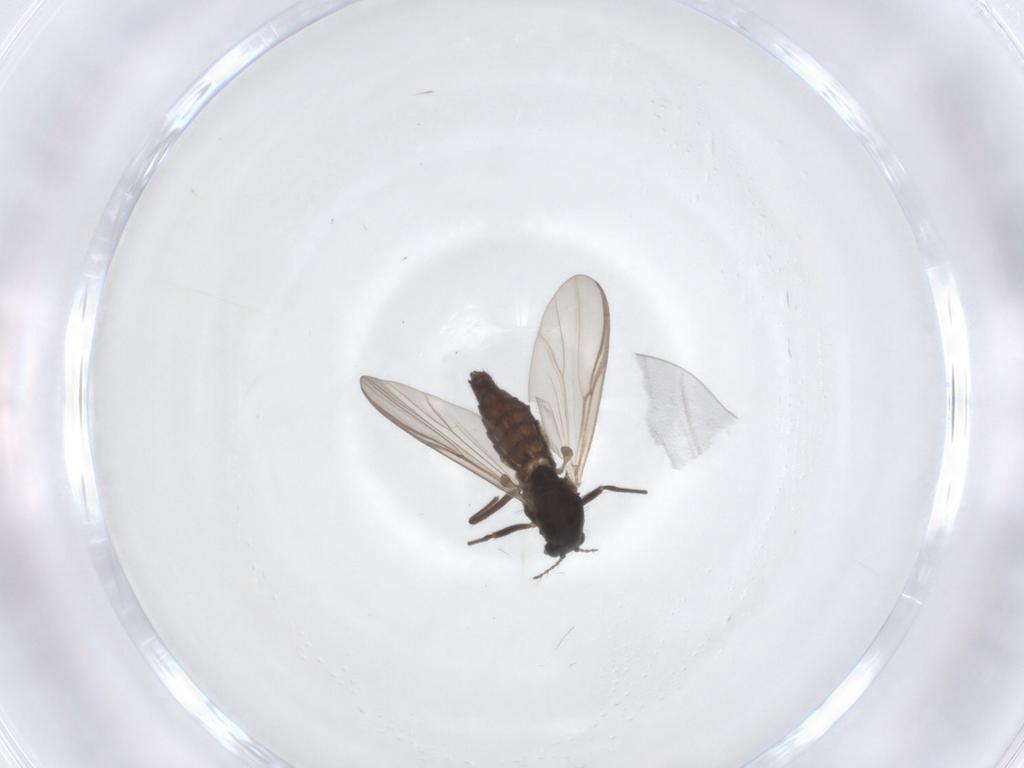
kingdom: Animalia
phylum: Arthropoda
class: Insecta
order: Diptera
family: Chironomidae
